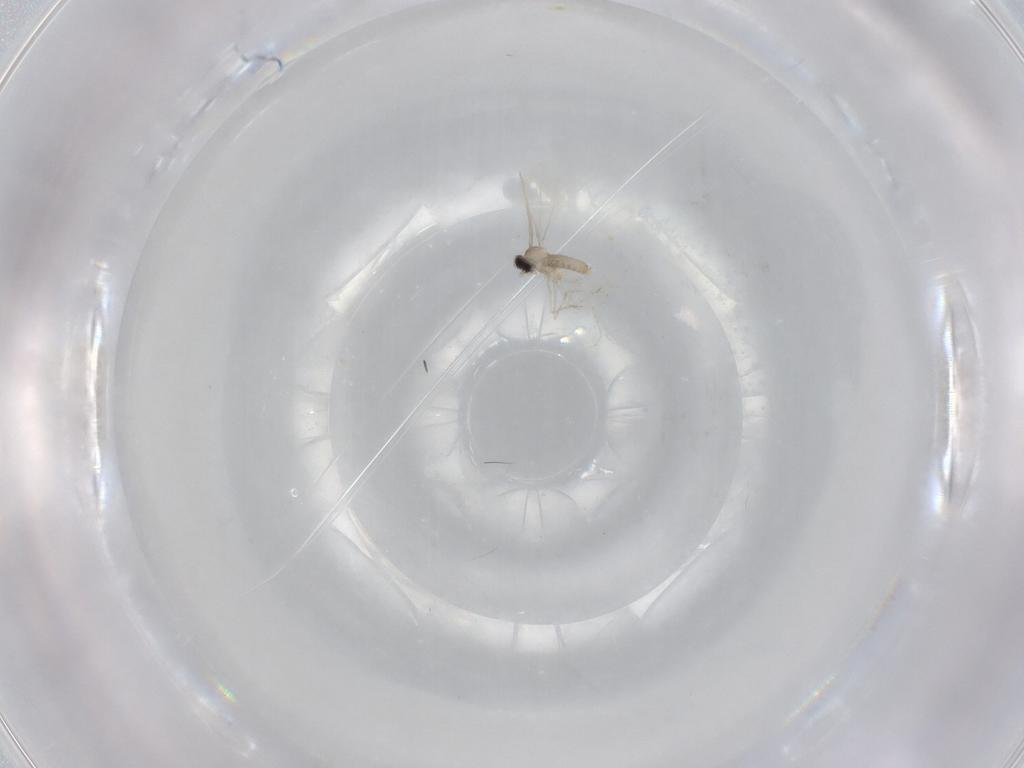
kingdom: Animalia
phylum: Arthropoda
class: Insecta
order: Diptera
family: Cecidomyiidae
